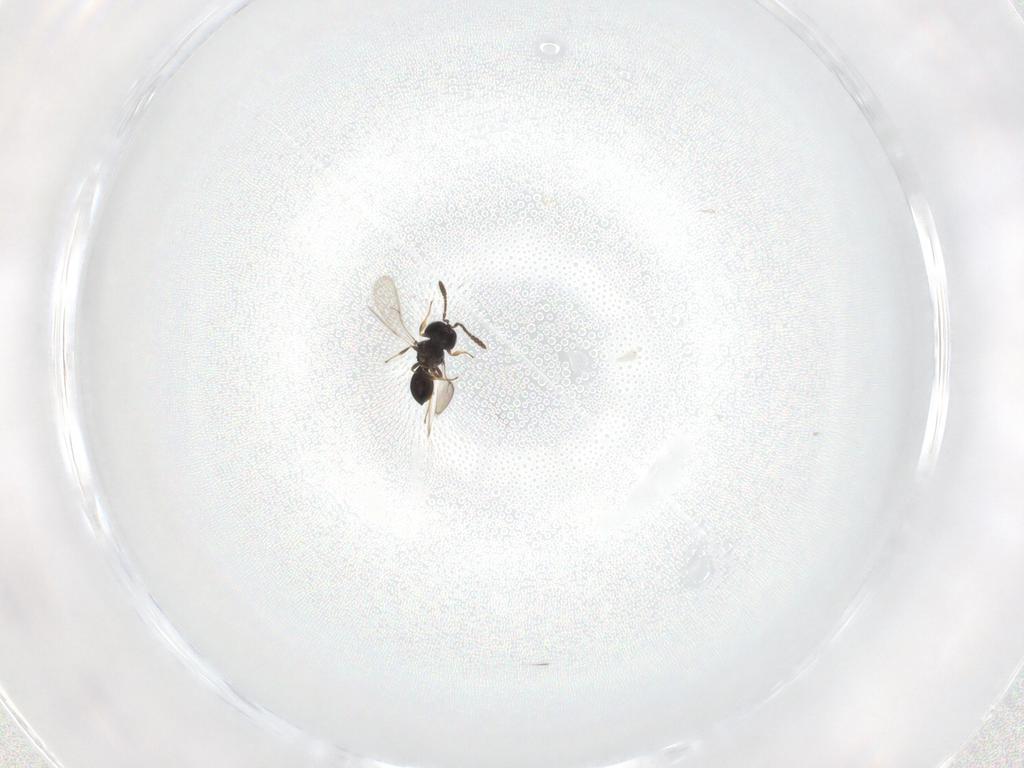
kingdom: Animalia
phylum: Arthropoda
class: Insecta
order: Hymenoptera
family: Scelionidae
